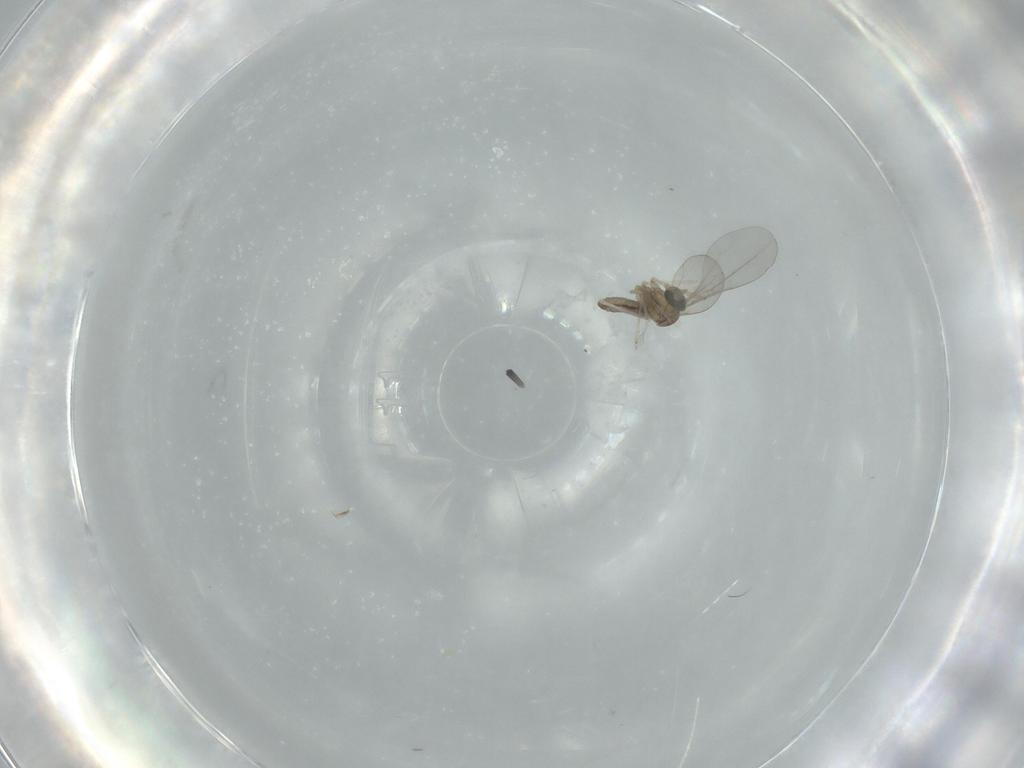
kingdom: Animalia
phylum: Arthropoda
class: Insecta
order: Diptera
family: Cecidomyiidae
